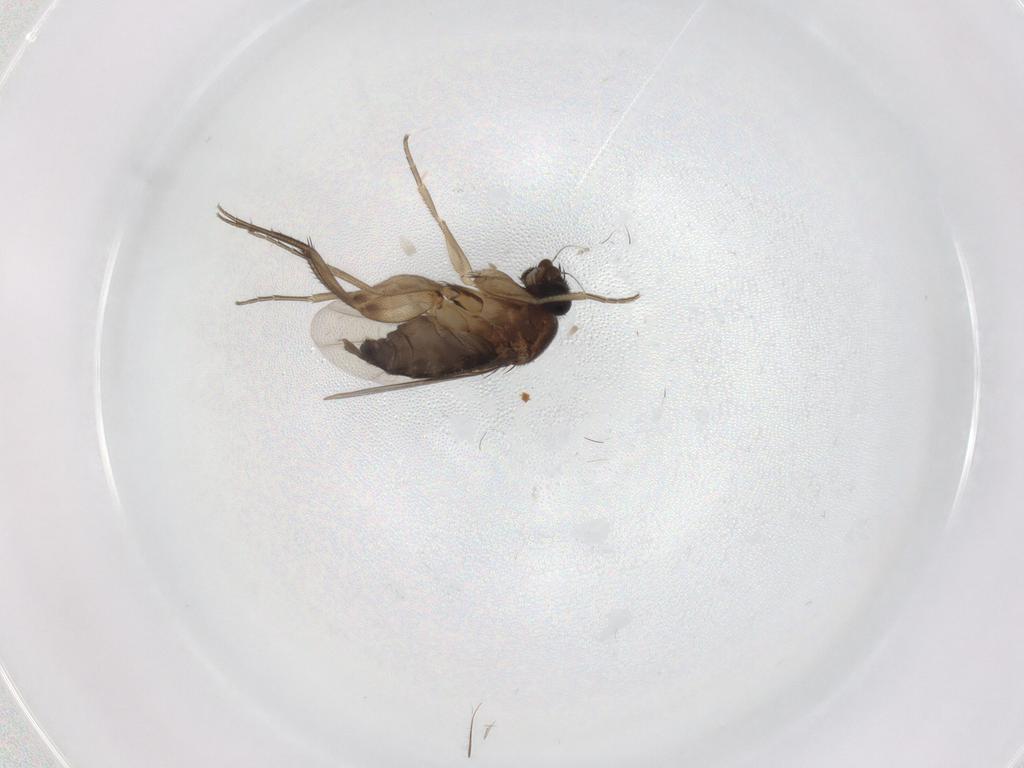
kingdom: Animalia
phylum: Arthropoda
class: Insecta
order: Diptera
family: Phoridae
